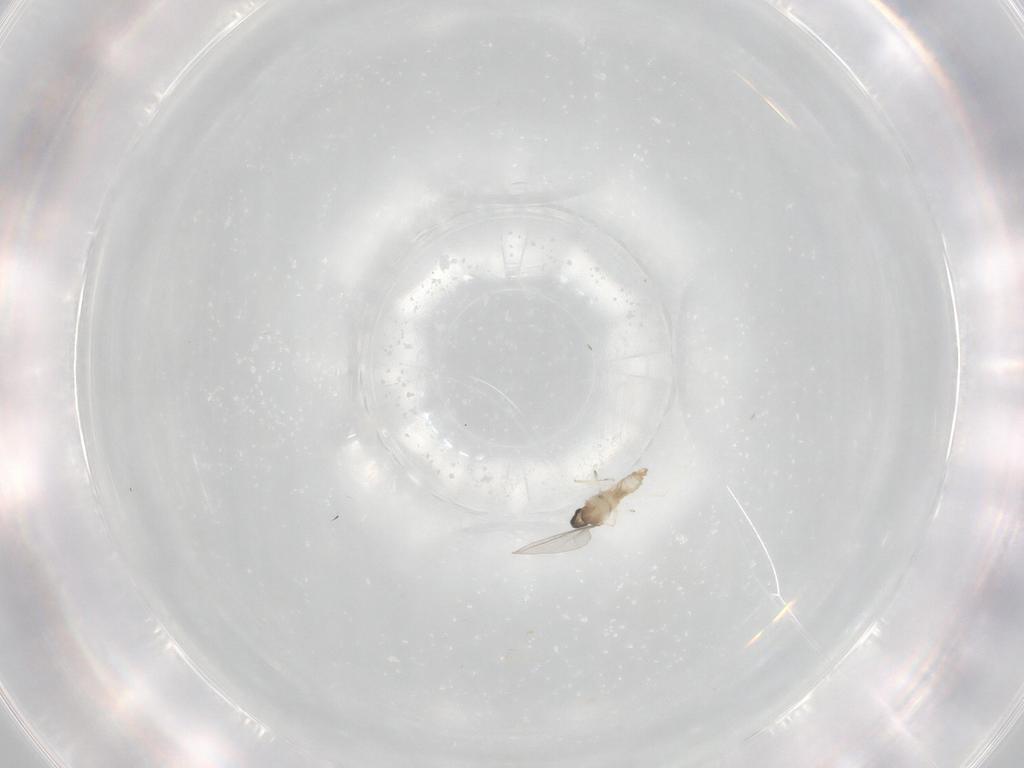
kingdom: Animalia
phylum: Arthropoda
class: Insecta
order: Diptera
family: Cecidomyiidae
